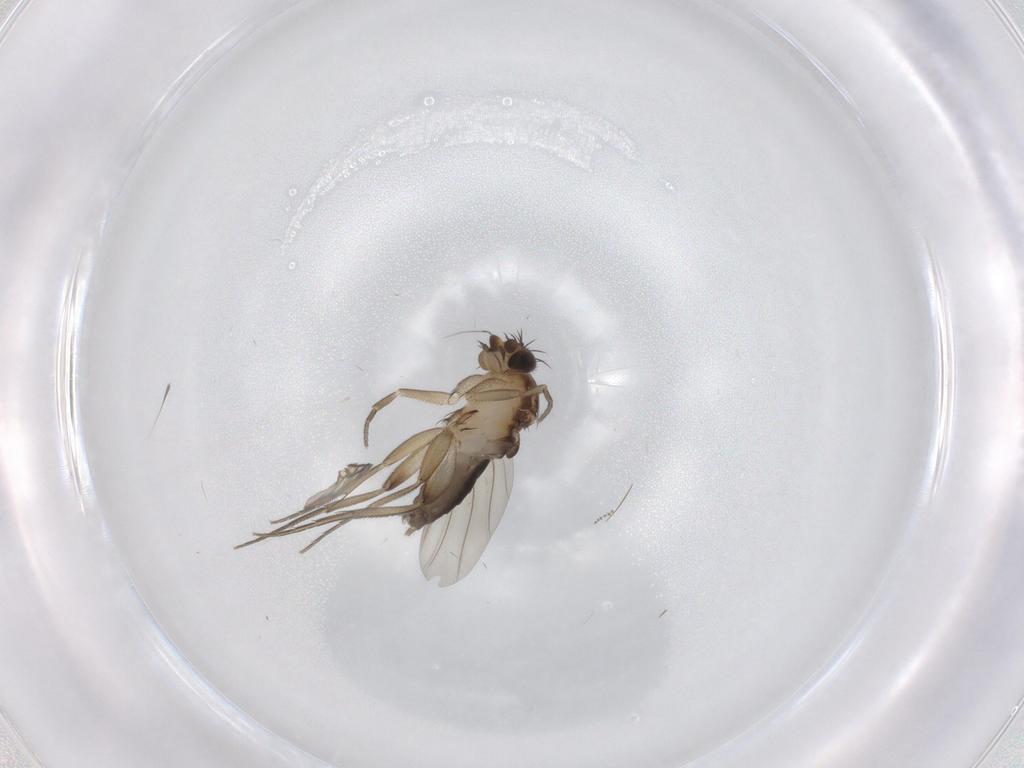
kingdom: Animalia
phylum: Arthropoda
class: Insecta
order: Diptera
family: Phoridae
